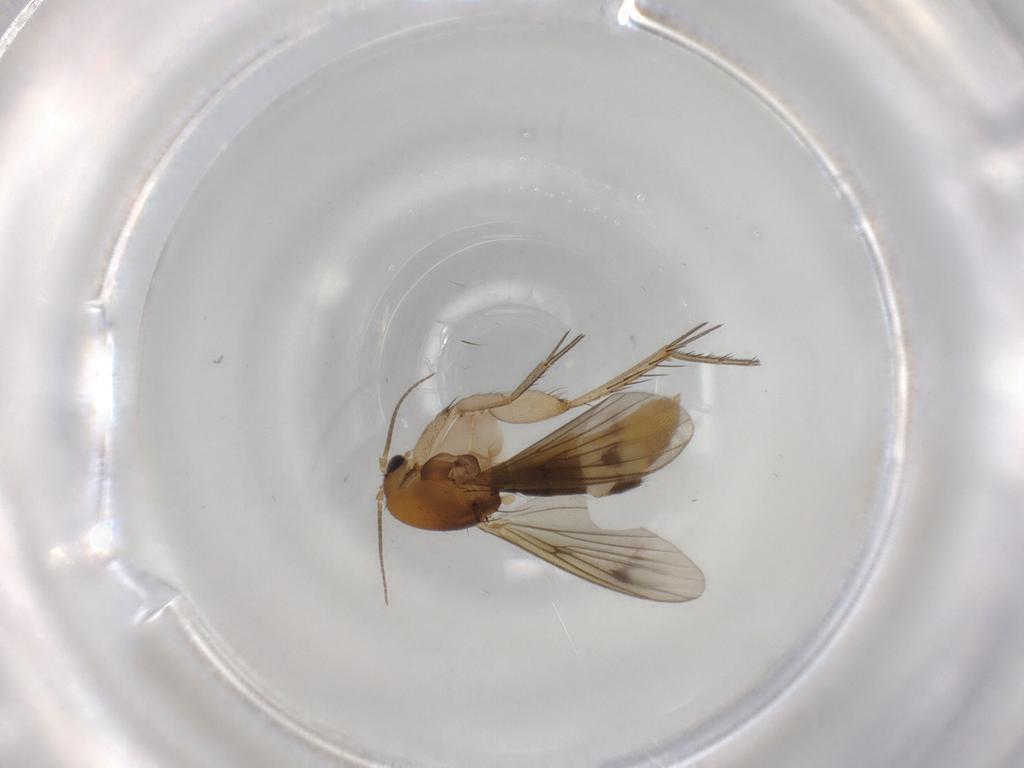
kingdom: Animalia
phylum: Arthropoda
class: Insecta
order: Diptera
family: Mycetophilidae
